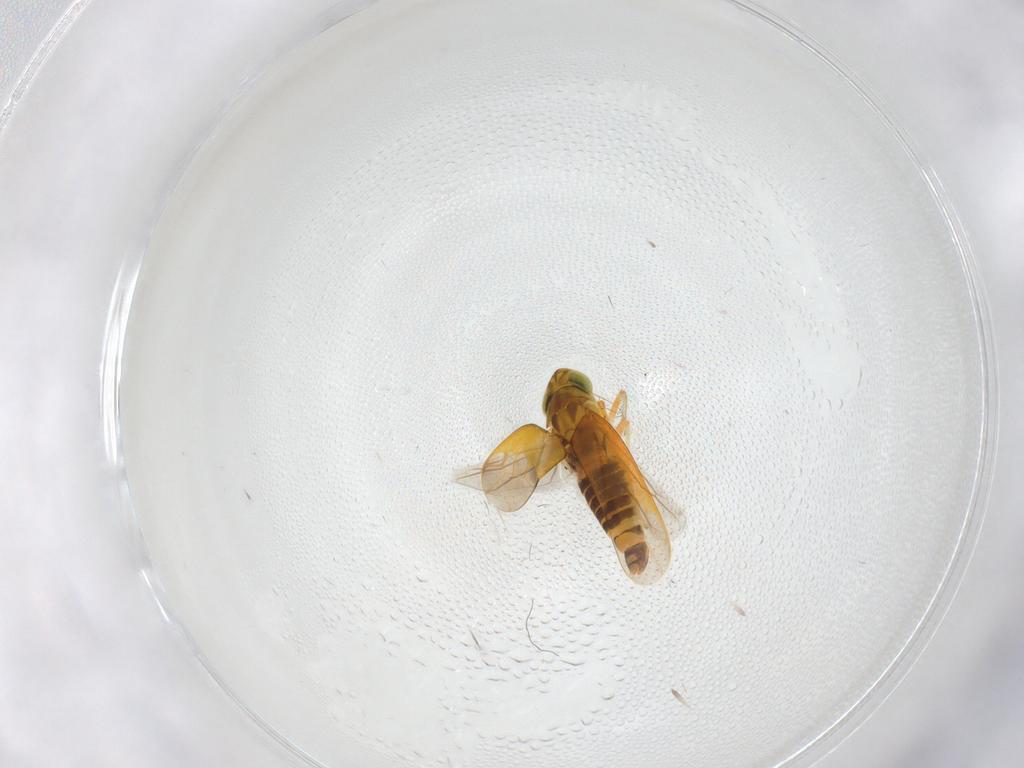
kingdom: Animalia
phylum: Arthropoda
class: Insecta
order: Hemiptera
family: Cicadellidae
